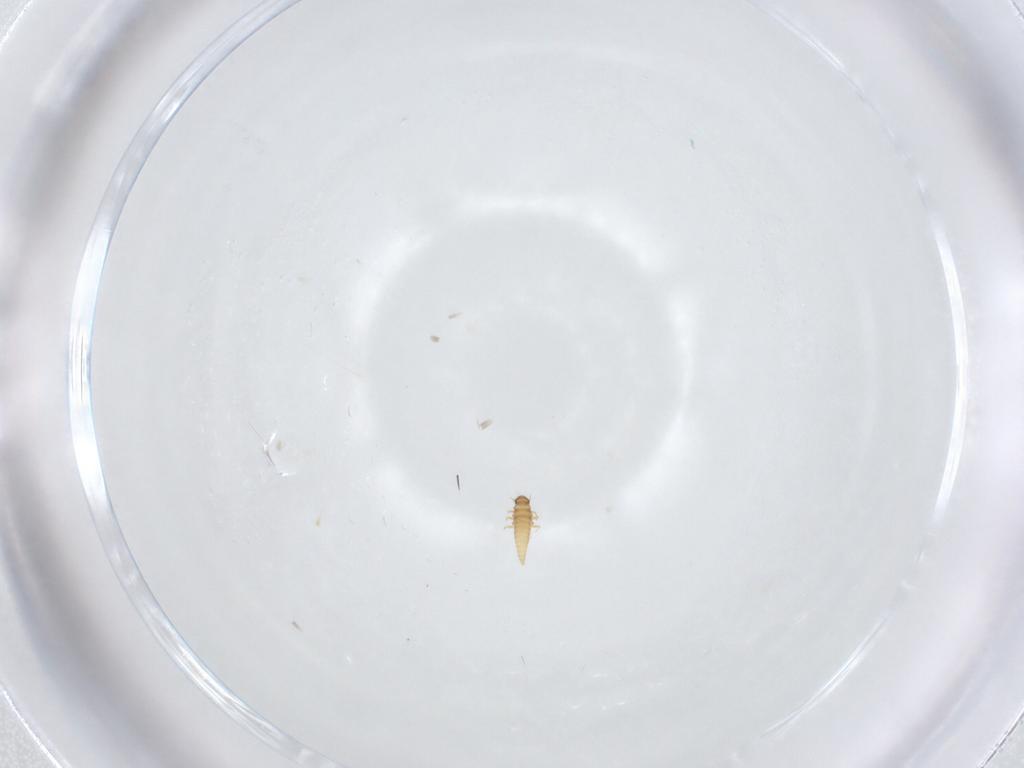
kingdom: Animalia
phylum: Arthropoda
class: Insecta
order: Coleoptera
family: Ripiphoridae
